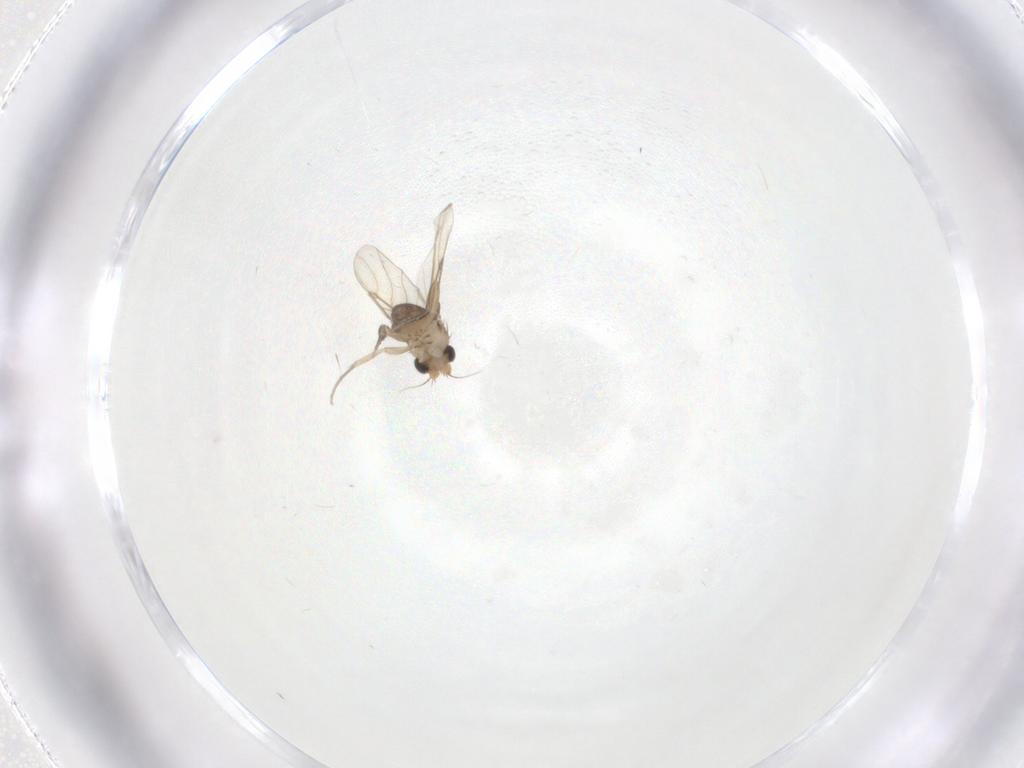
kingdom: Animalia
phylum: Arthropoda
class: Insecta
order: Diptera
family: Phoridae
